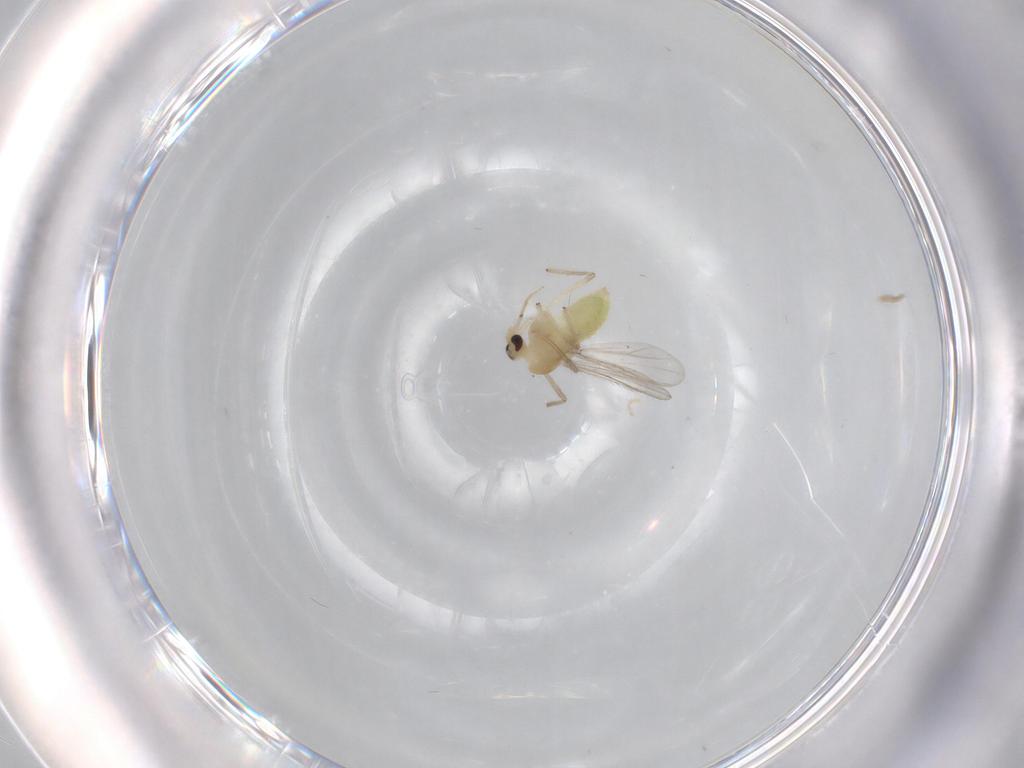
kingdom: Animalia
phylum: Arthropoda
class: Insecta
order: Diptera
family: Chironomidae
